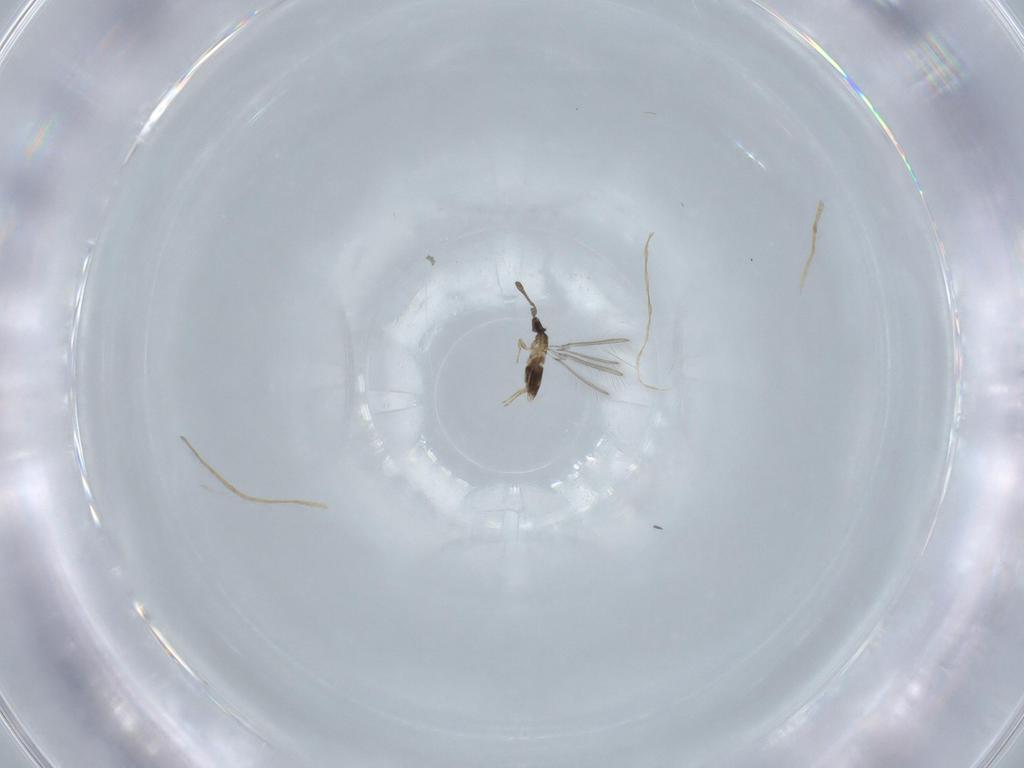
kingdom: Animalia
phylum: Arthropoda
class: Insecta
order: Hymenoptera
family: Mymaridae
